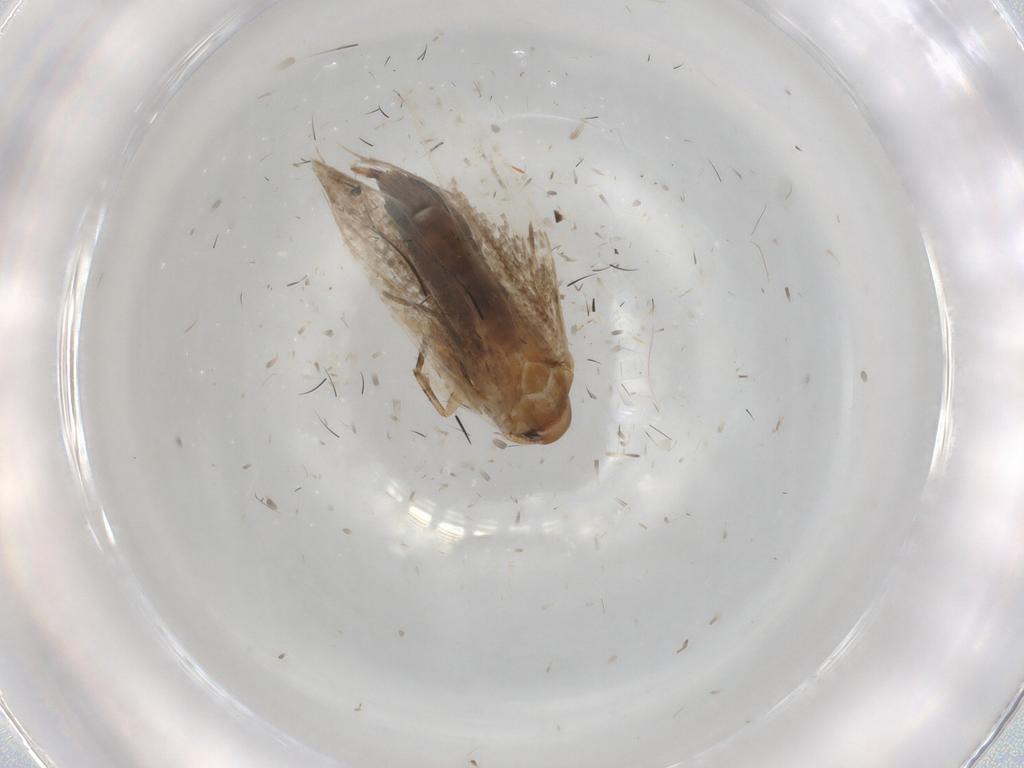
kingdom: Animalia
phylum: Arthropoda
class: Insecta
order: Lepidoptera
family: Cosmopterigidae
